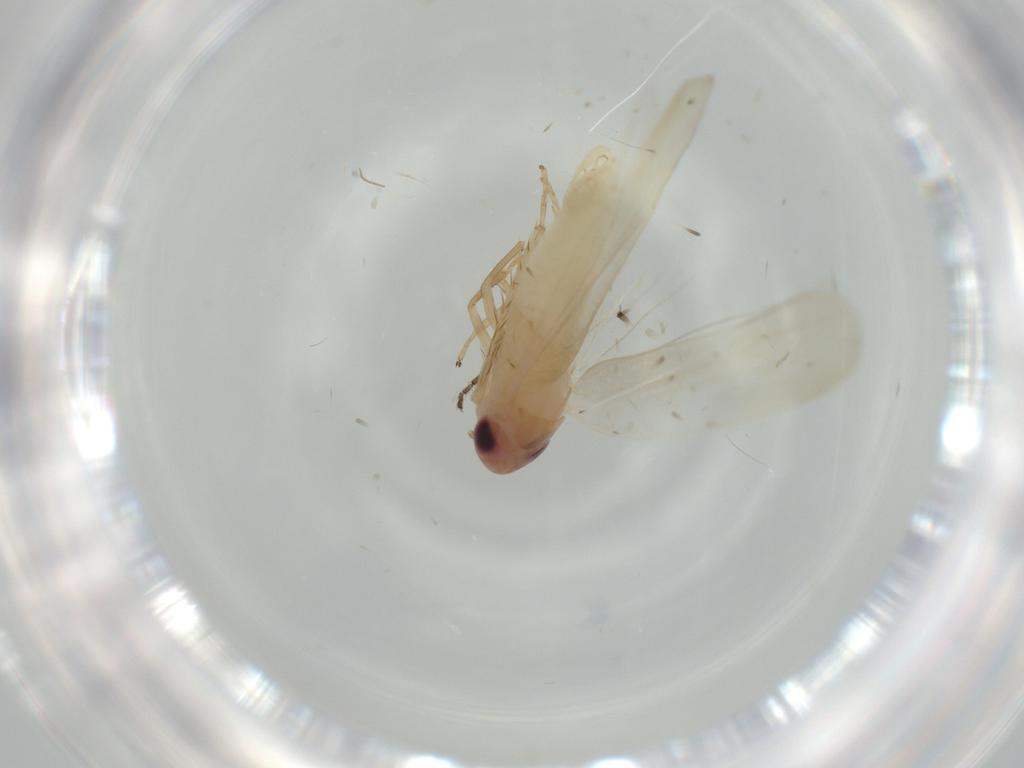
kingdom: Animalia
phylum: Arthropoda
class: Insecta
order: Hemiptera
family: Cicadellidae
